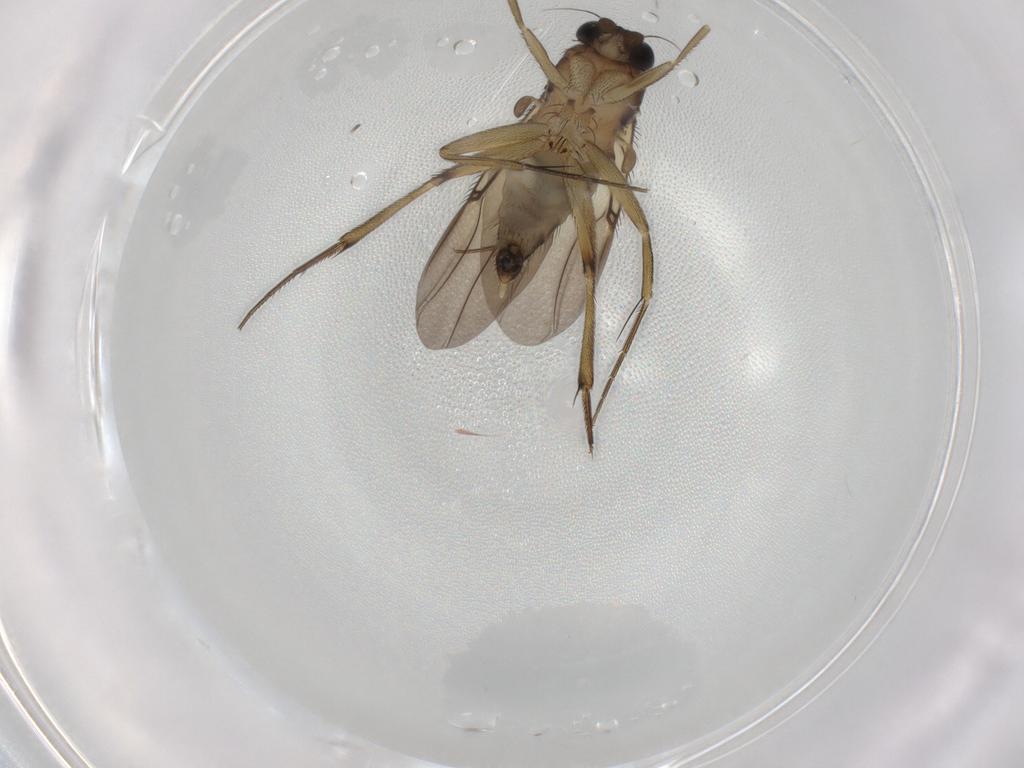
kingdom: Animalia
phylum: Arthropoda
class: Insecta
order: Diptera
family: Phoridae
